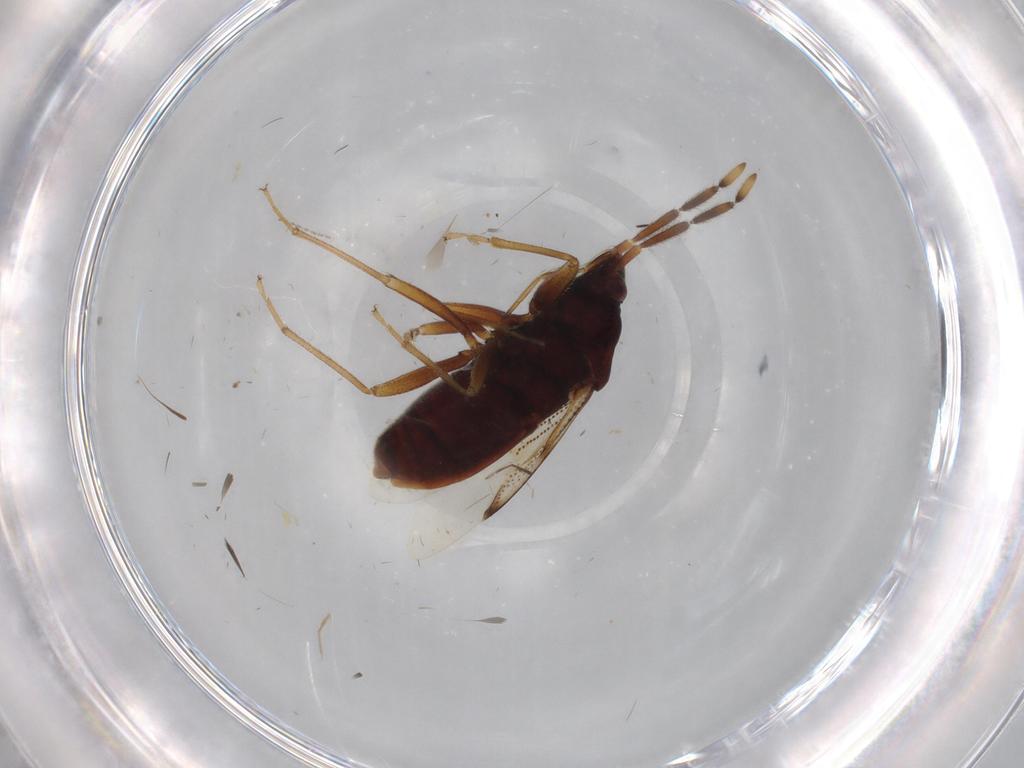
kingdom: Animalia
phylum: Arthropoda
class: Insecta
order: Hemiptera
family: Rhyparochromidae
